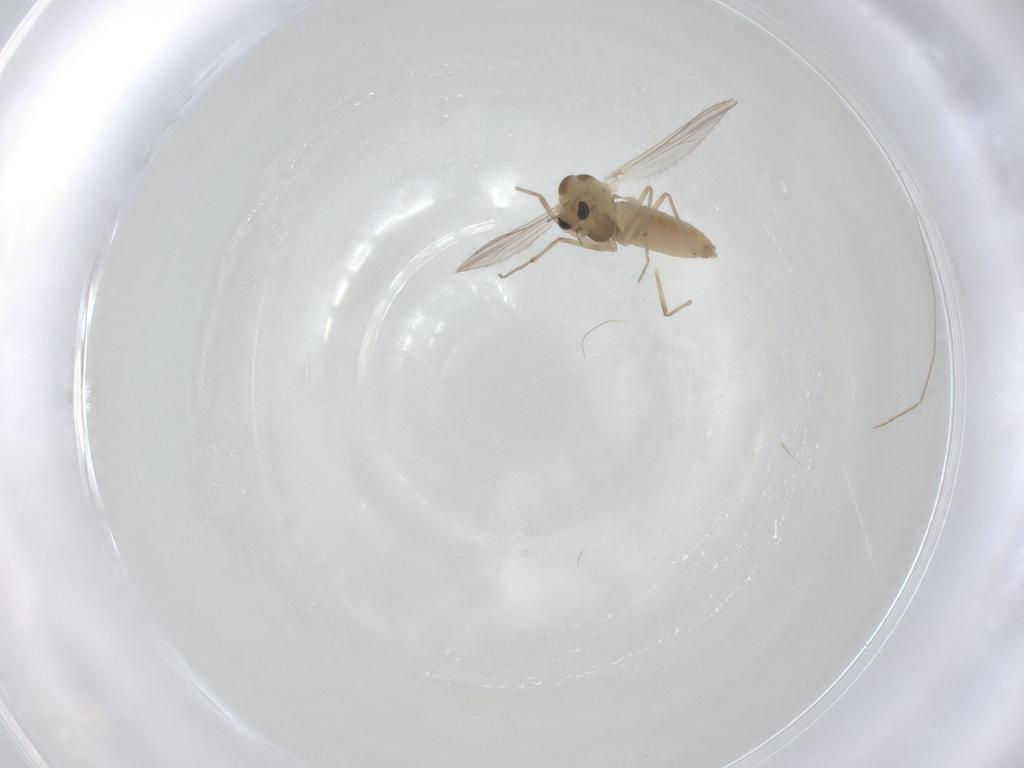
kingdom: Animalia
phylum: Arthropoda
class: Insecta
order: Diptera
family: Chironomidae
